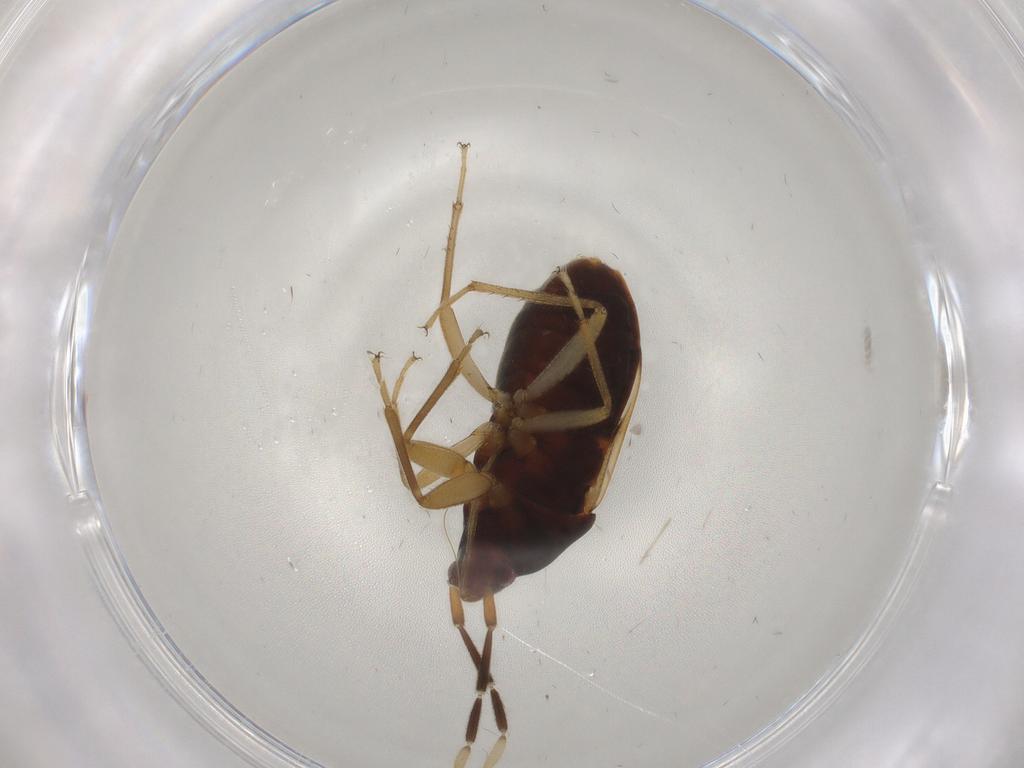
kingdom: Animalia
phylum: Arthropoda
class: Insecta
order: Hemiptera
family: Rhyparochromidae
